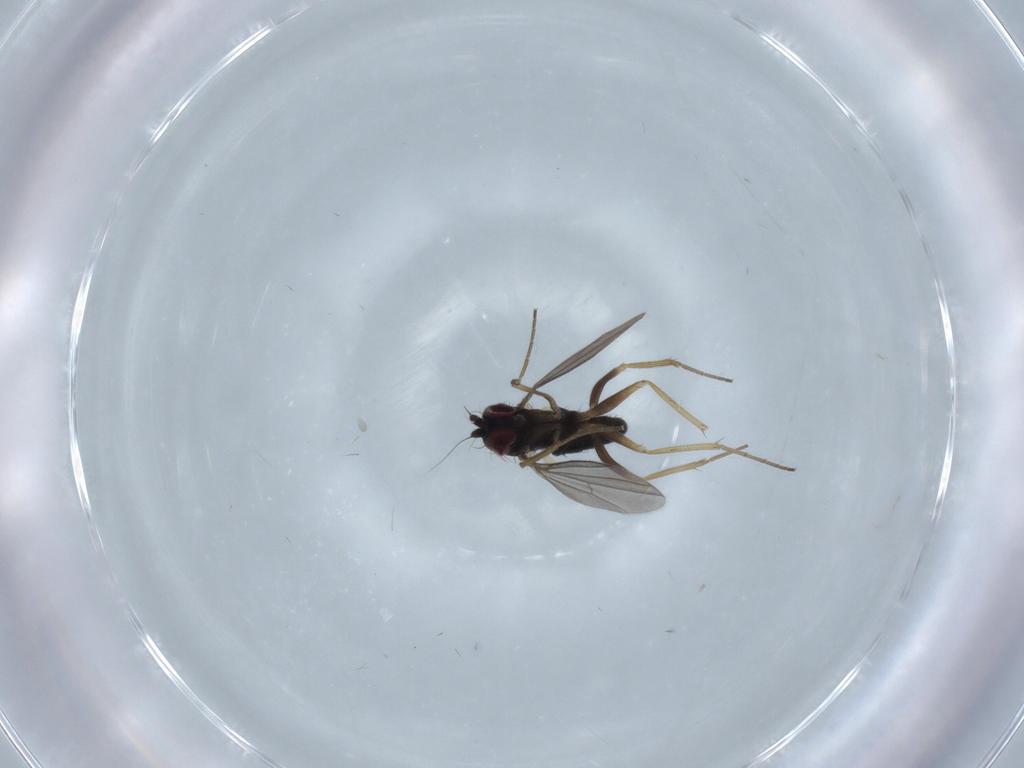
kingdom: Animalia
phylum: Arthropoda
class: Insecta
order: Diptera
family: Dolichopodidae
